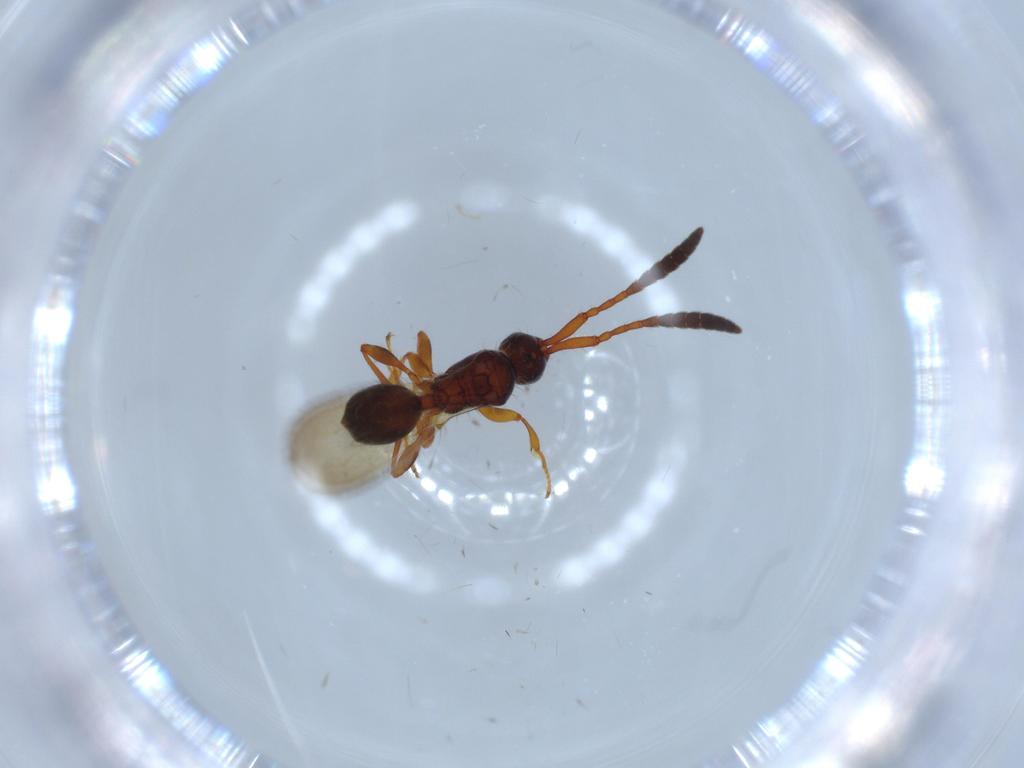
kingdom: Animalia
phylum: Arthropoda
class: Insecta
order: Hymenoptera
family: Diapriidae
